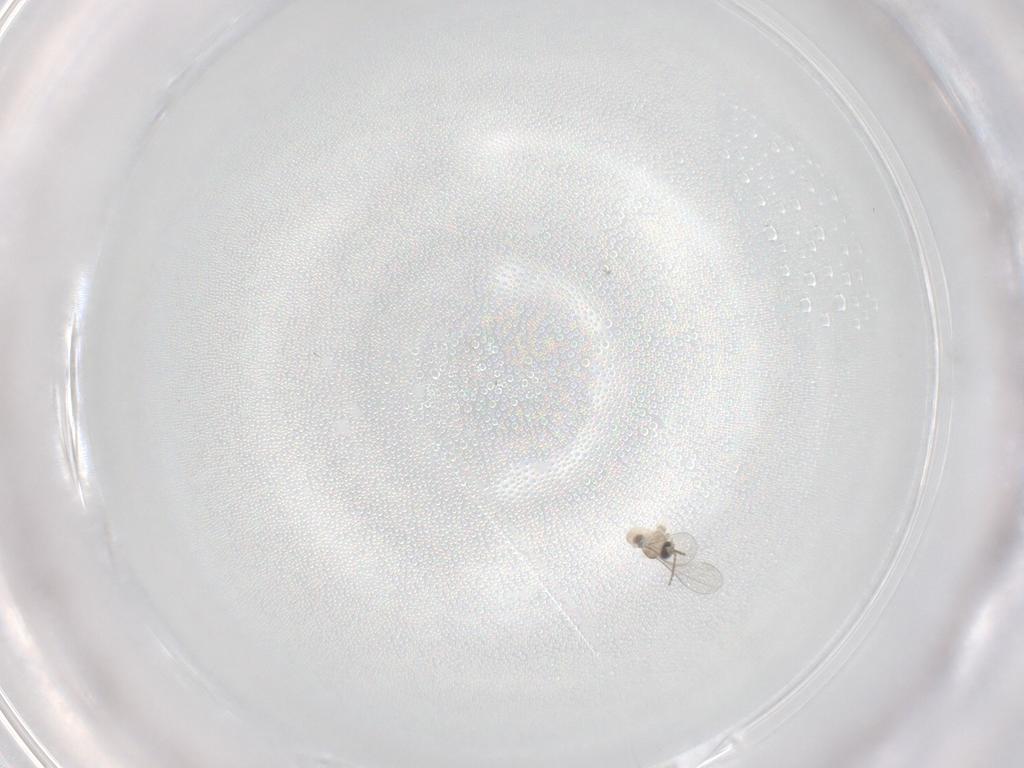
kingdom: Animalia
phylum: Arthropoda
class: Insecta
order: Diptera
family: Cecidomyiidae
